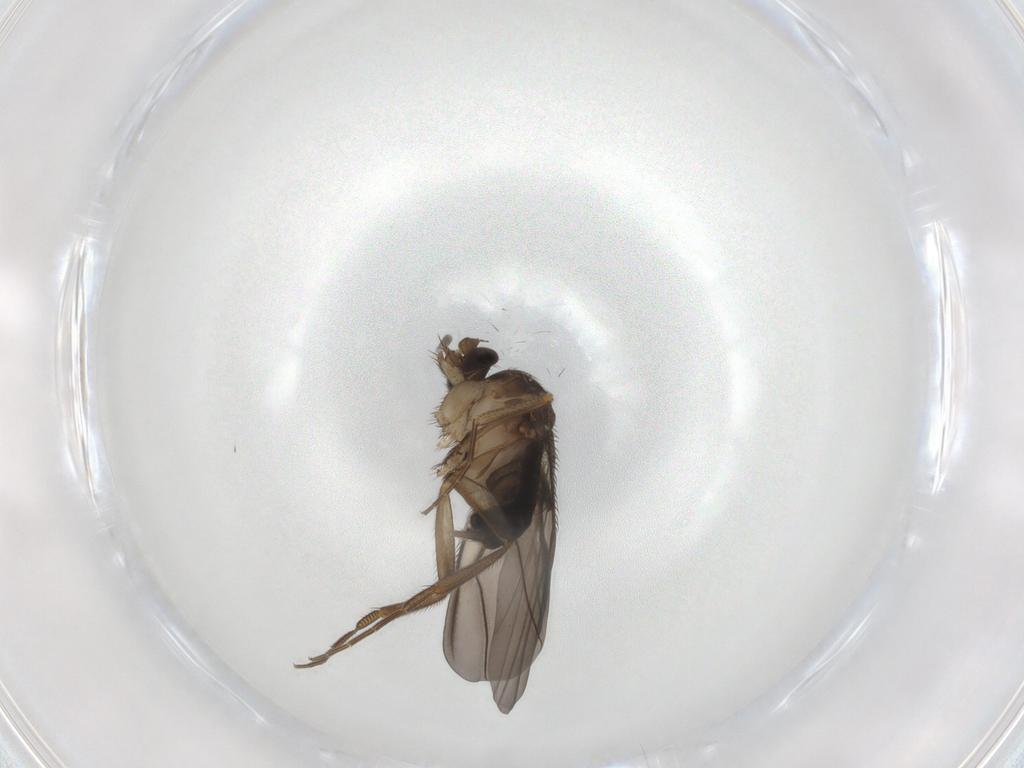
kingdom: Animalia
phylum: Arthropoda
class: Insecta
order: Diptera
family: Phoridae
